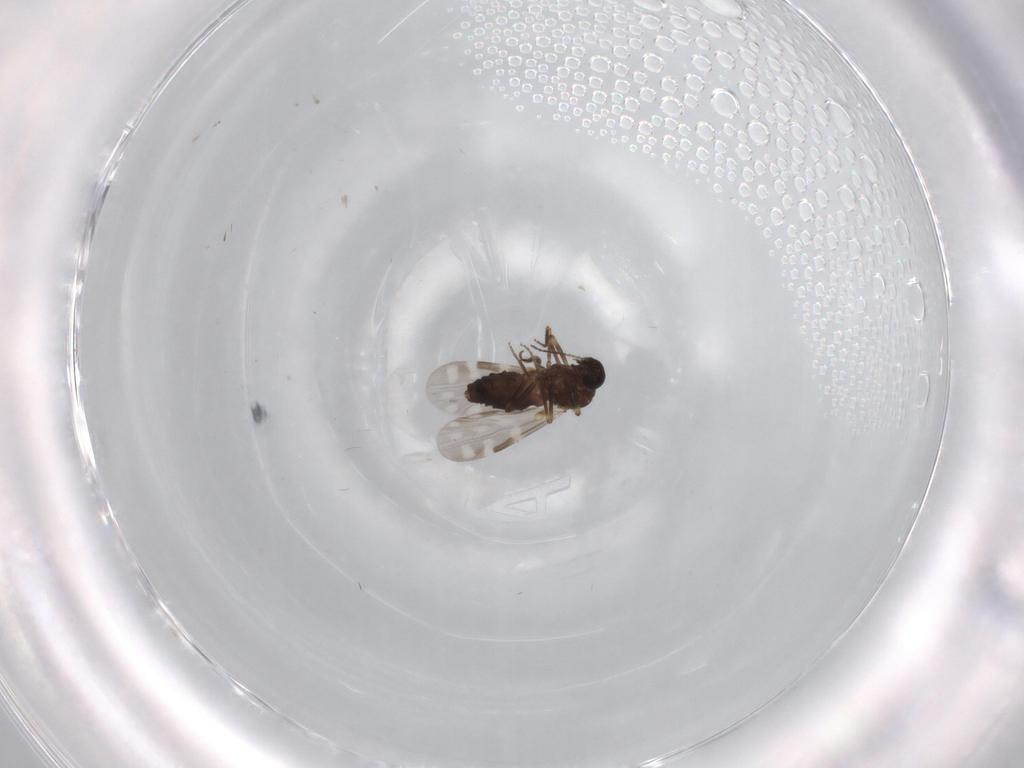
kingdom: Animalia
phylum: Arthropoda
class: Insecta
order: Diptera
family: Cecidomyiidae
